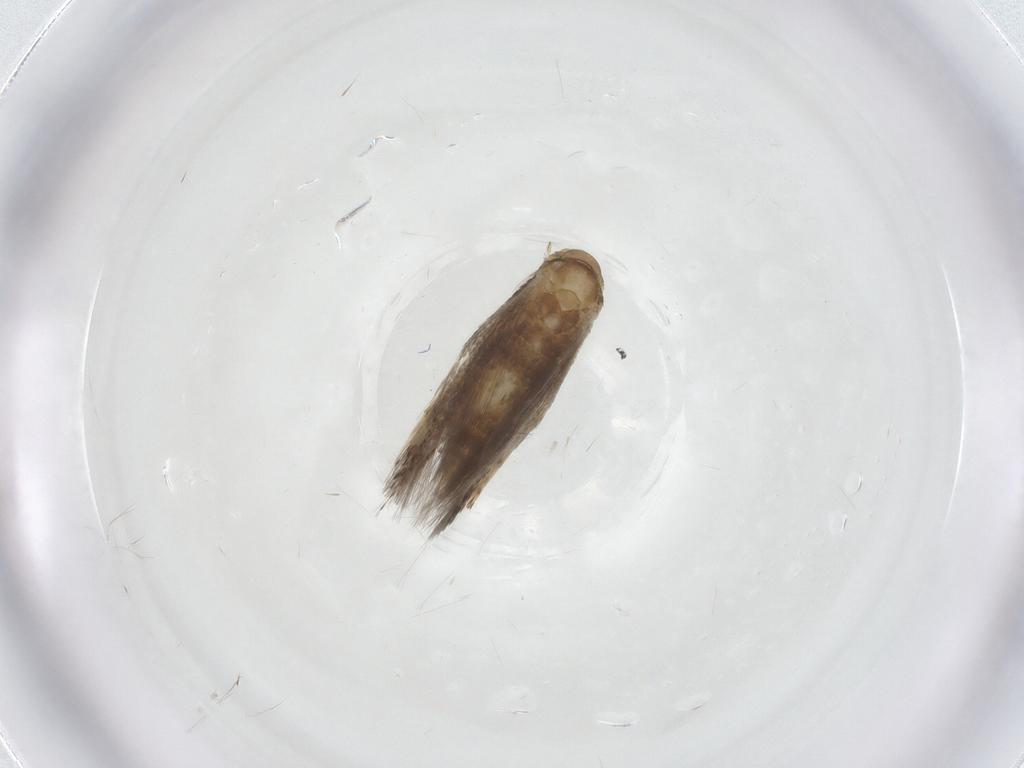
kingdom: Animalia
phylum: Arthropoda
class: Insecta
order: Lepidoptera
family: Elachistidae
